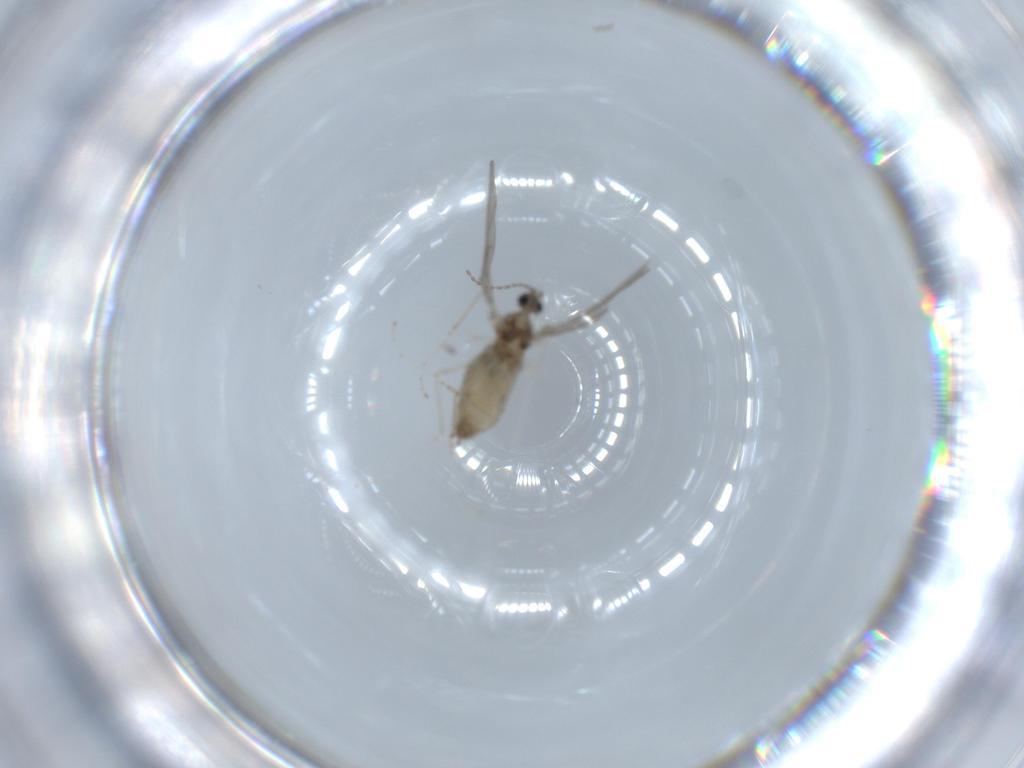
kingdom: Animalia
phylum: Arthropoda
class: Insecta
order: Diptera
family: Cecidomyiidae
